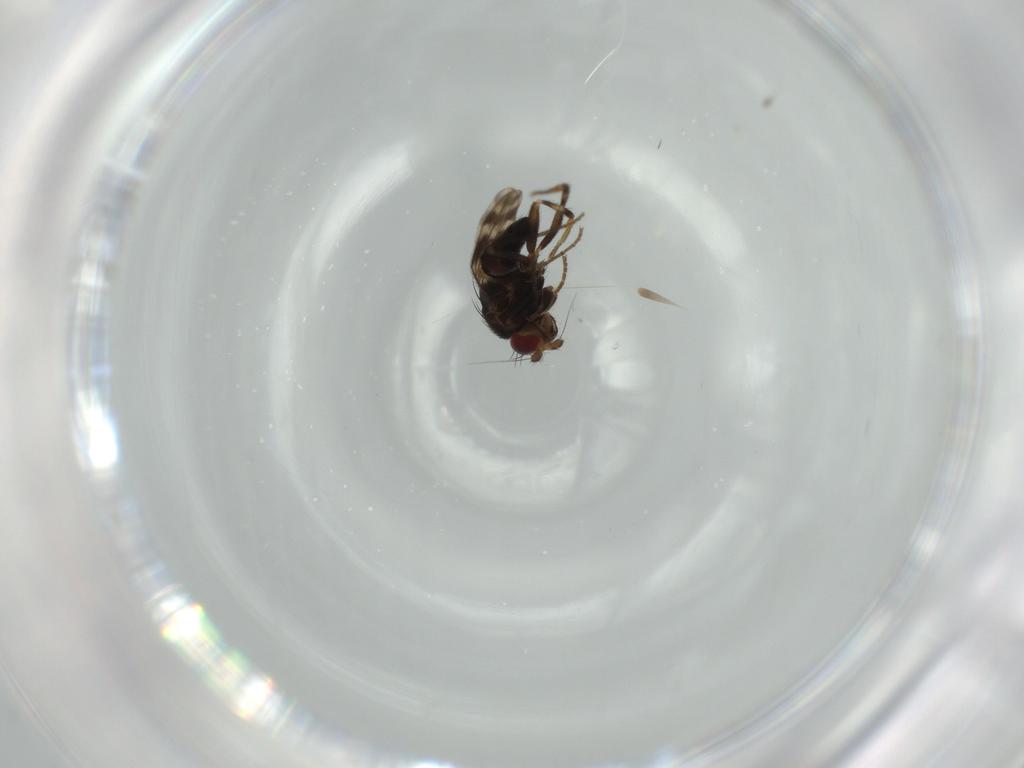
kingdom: Animalia
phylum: Arthropoda
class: Insecta
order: Diptera
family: Sphaeroceridae
